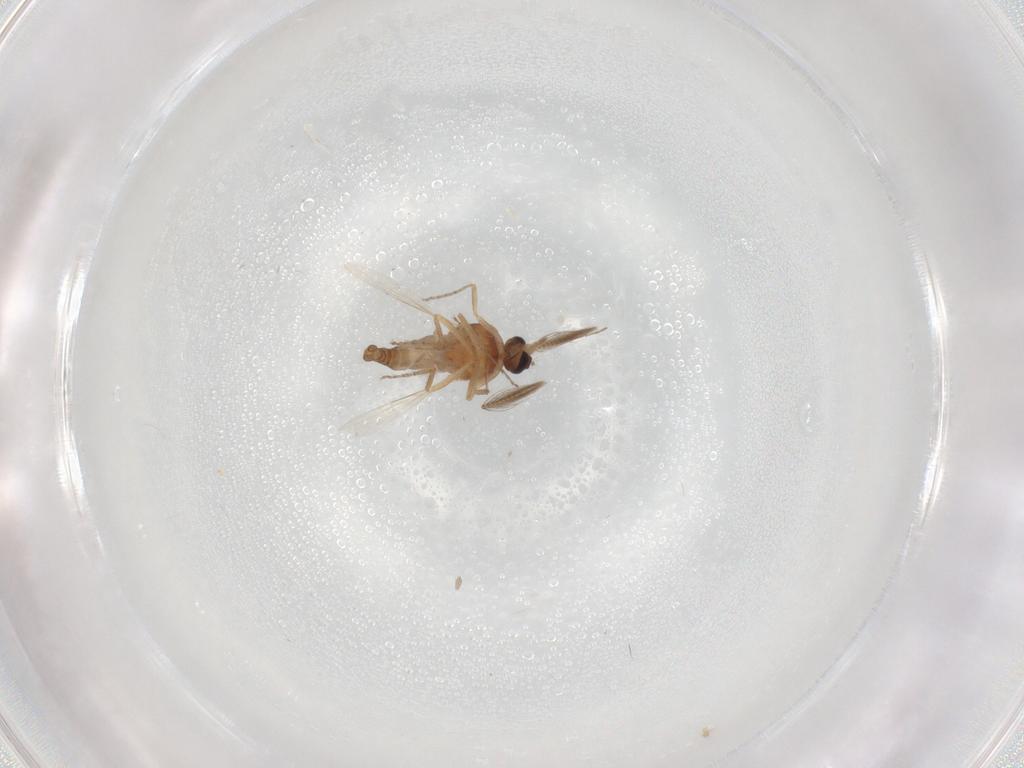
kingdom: Animalia
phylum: Arthropoda
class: Insecta
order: Diptera
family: Ceratopogonidae
